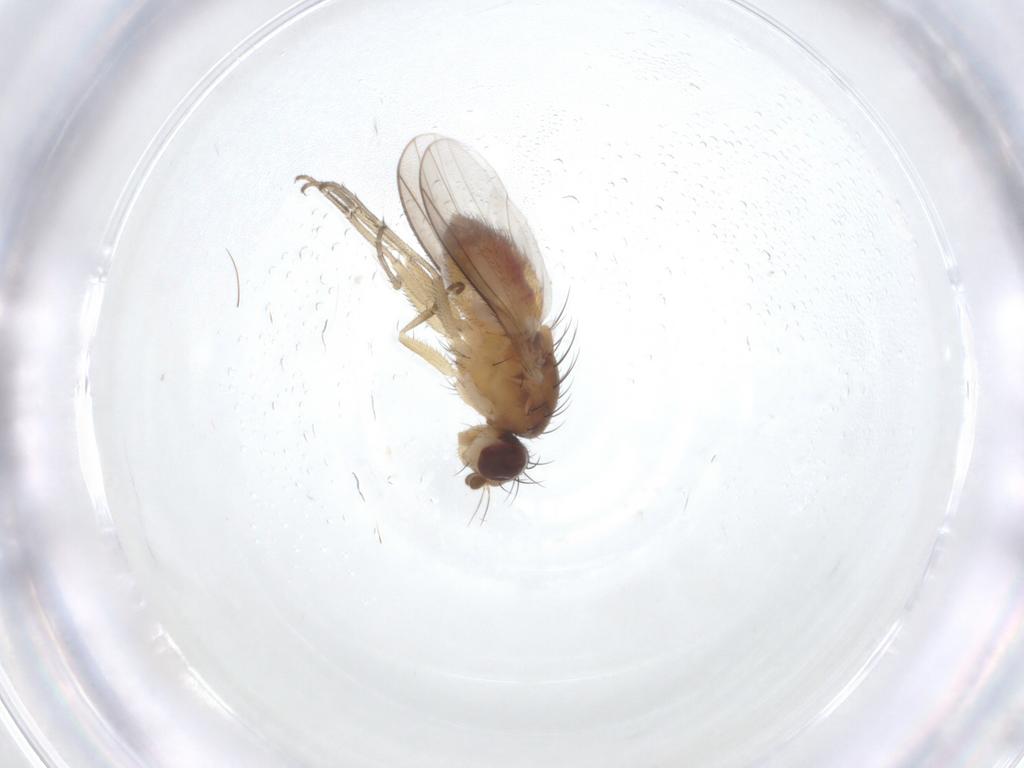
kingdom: Animalia
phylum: Arthropoda
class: Insecta
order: Diptera
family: Heleomyzidae
